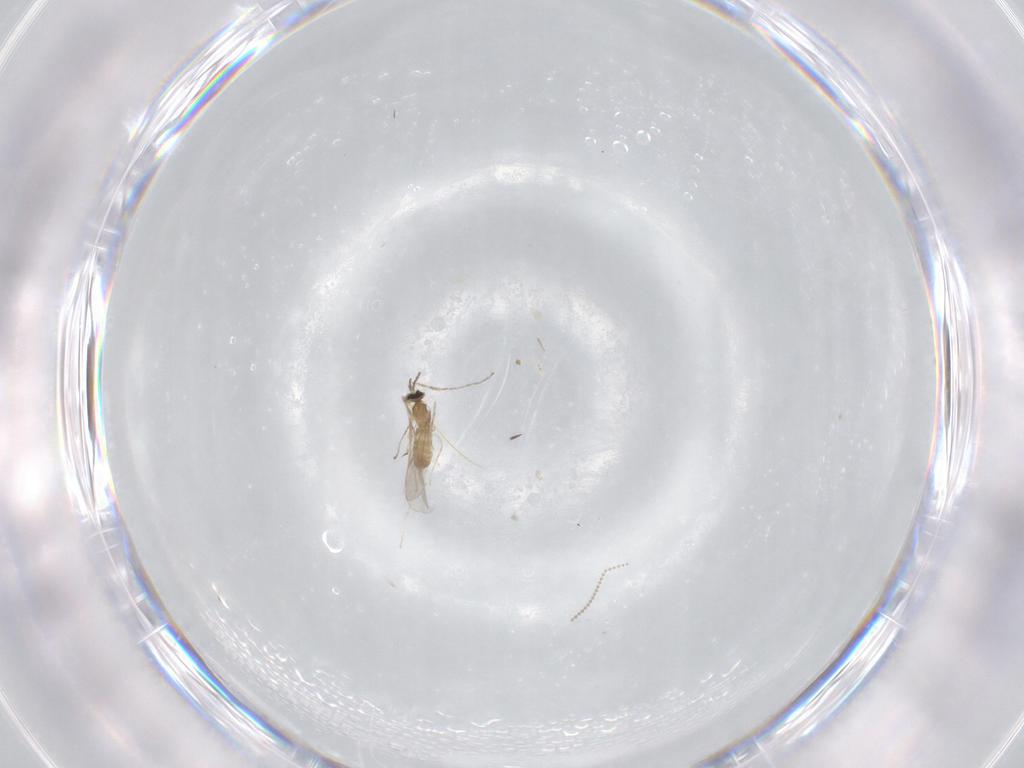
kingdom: Animalia
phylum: Arthropoda
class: Insecta
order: Diptera
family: Cecidomyiidae
